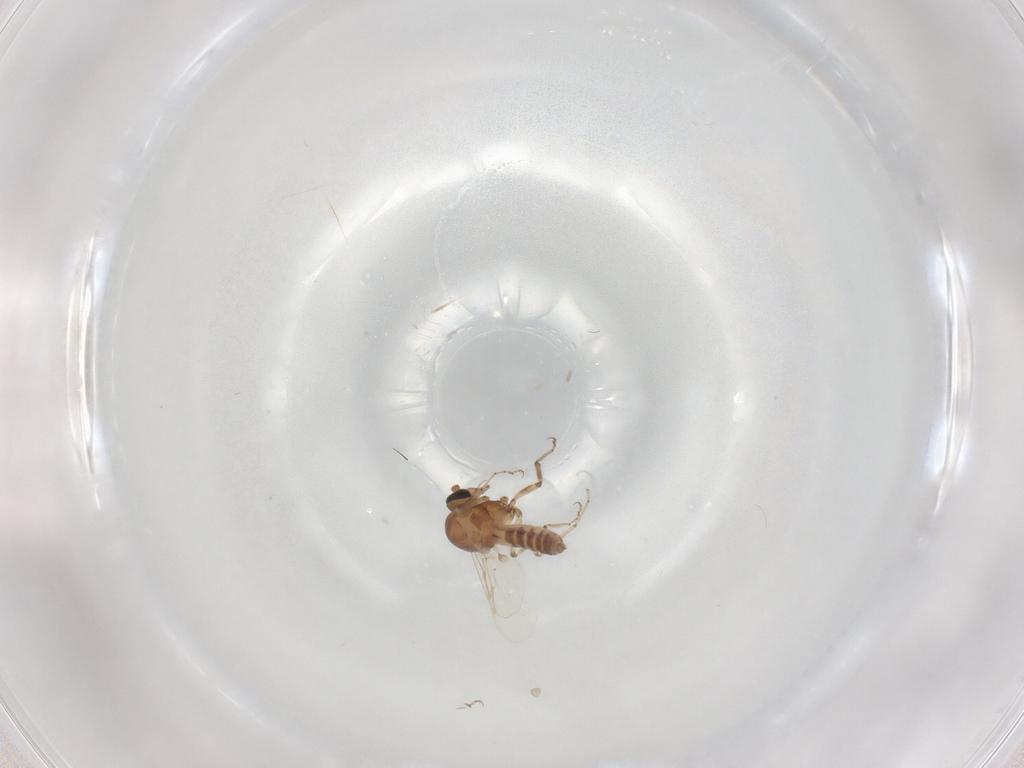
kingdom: Animalia
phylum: Arthropoda
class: Insecta
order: Diptera
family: Ceratopogonidae
